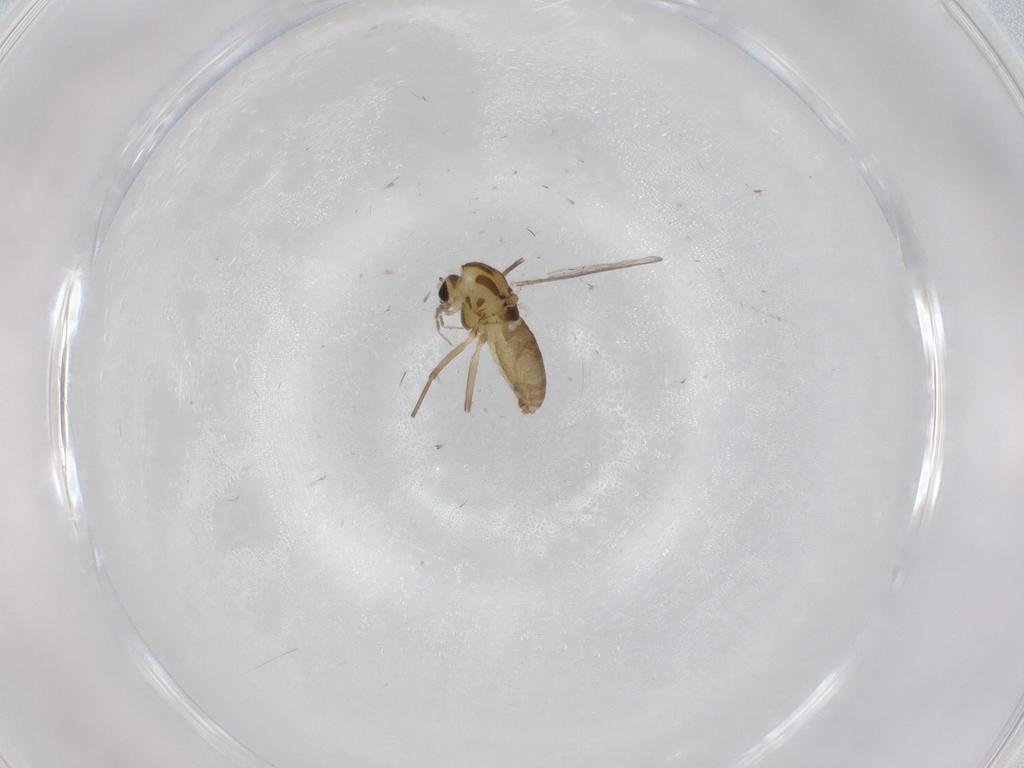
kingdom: Animalia
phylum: Arthropoda
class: Insecta
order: Diptera
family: Chironomidae
